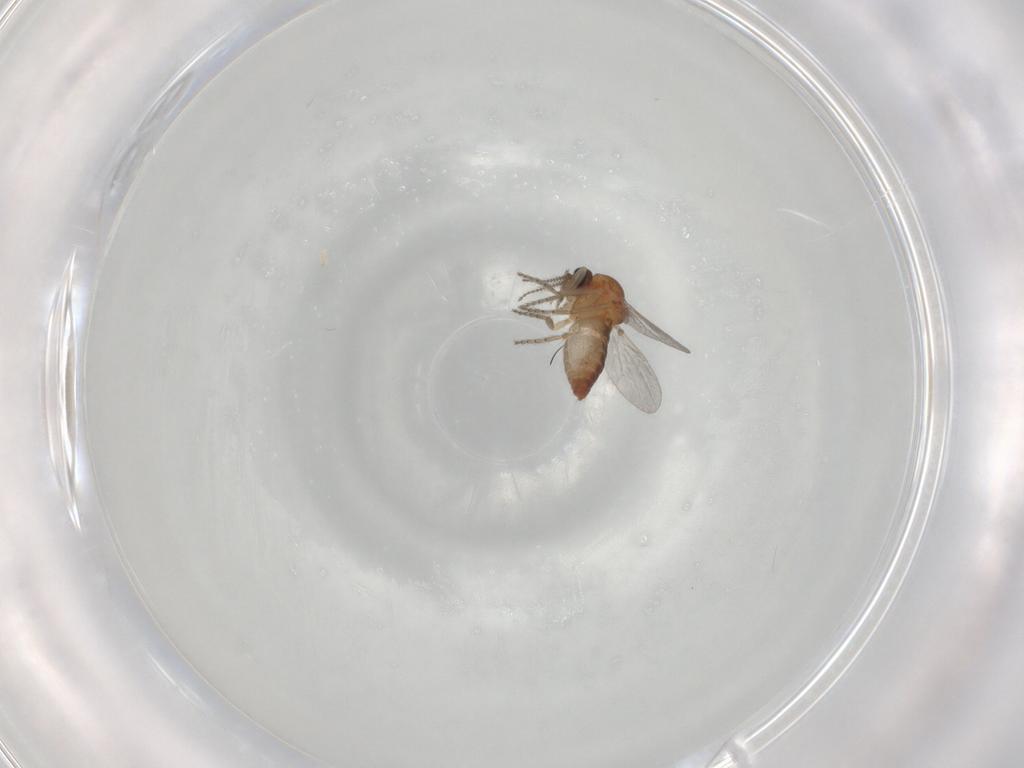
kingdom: Animalia
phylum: Arthropoda
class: Insecta
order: Diptera
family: Ceratopogonidae
